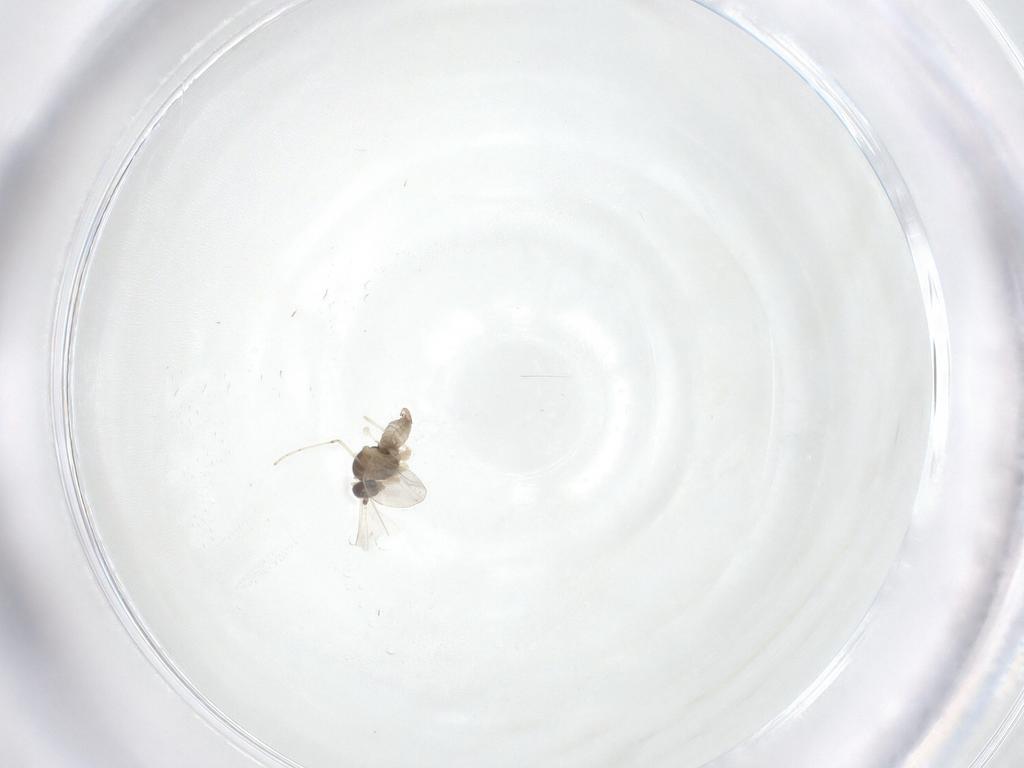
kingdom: Animalia
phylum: Arthropoda
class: Insecta
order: Diptera
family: Cecidomyiidae
